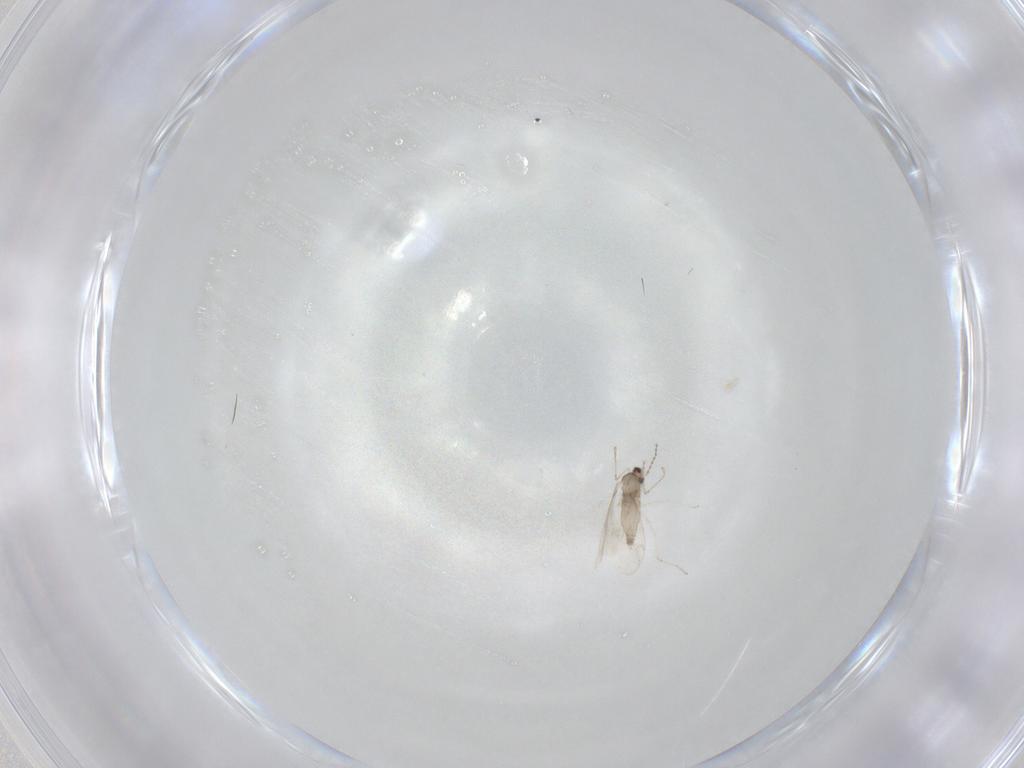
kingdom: Animalia
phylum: Arthropoda
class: Insecta
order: Diptera
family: Cecidomyiidae
